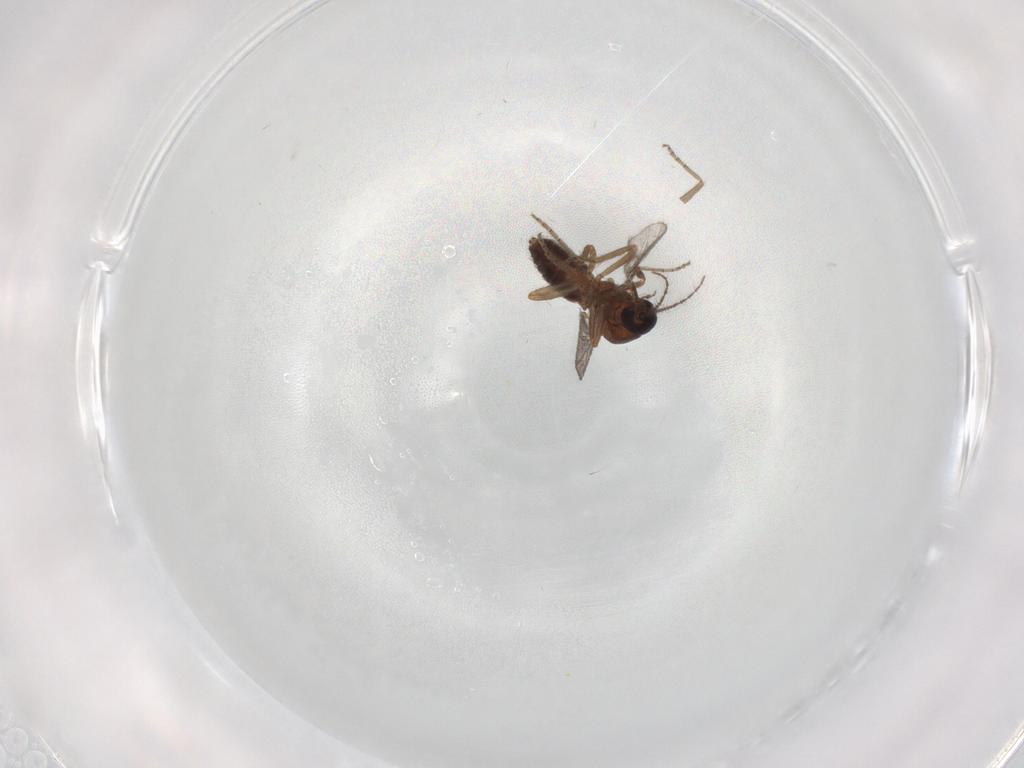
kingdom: Animalia
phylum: Arthropoda
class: Insecta
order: Diptera
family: Ceratopogonidae
